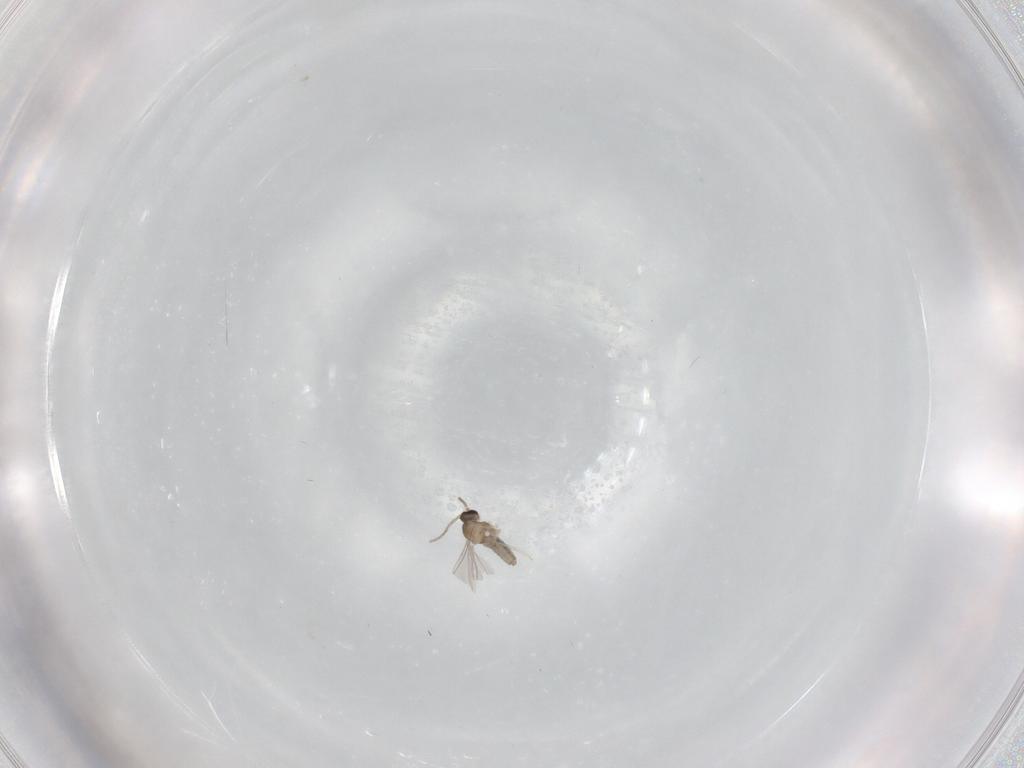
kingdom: Animalia
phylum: Arthropoda
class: Insecta
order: Diptera
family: Cecidomyiidae
